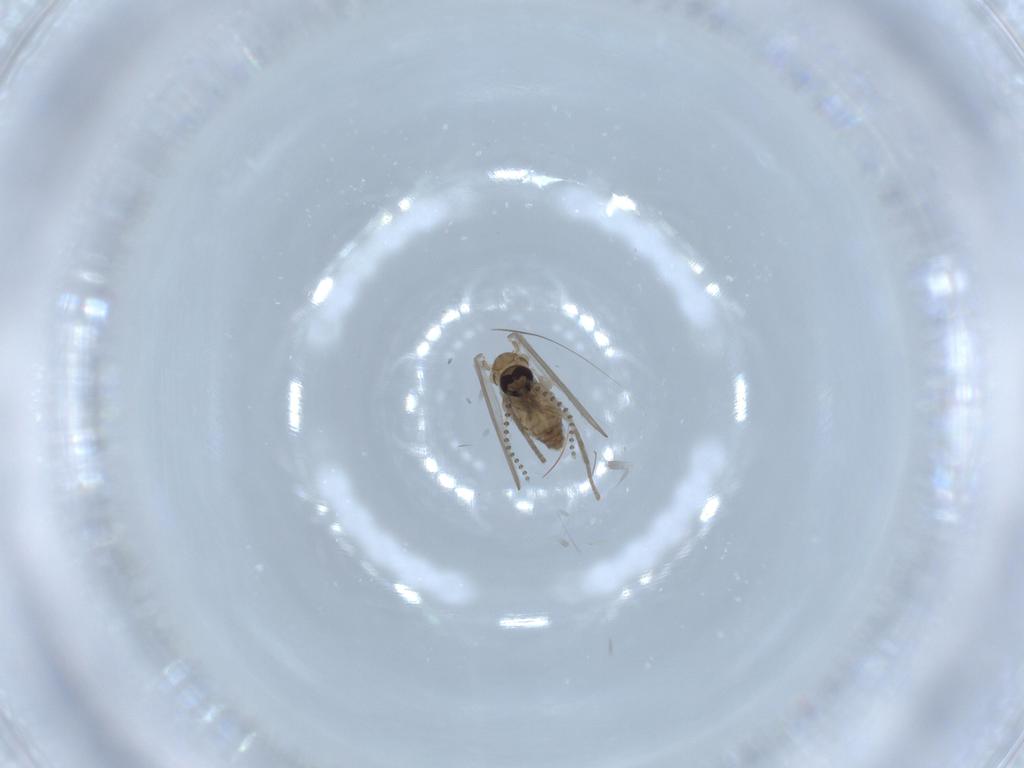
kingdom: Animalia
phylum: Arthropoda
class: Insecta
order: Diptera
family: Psychodidae
